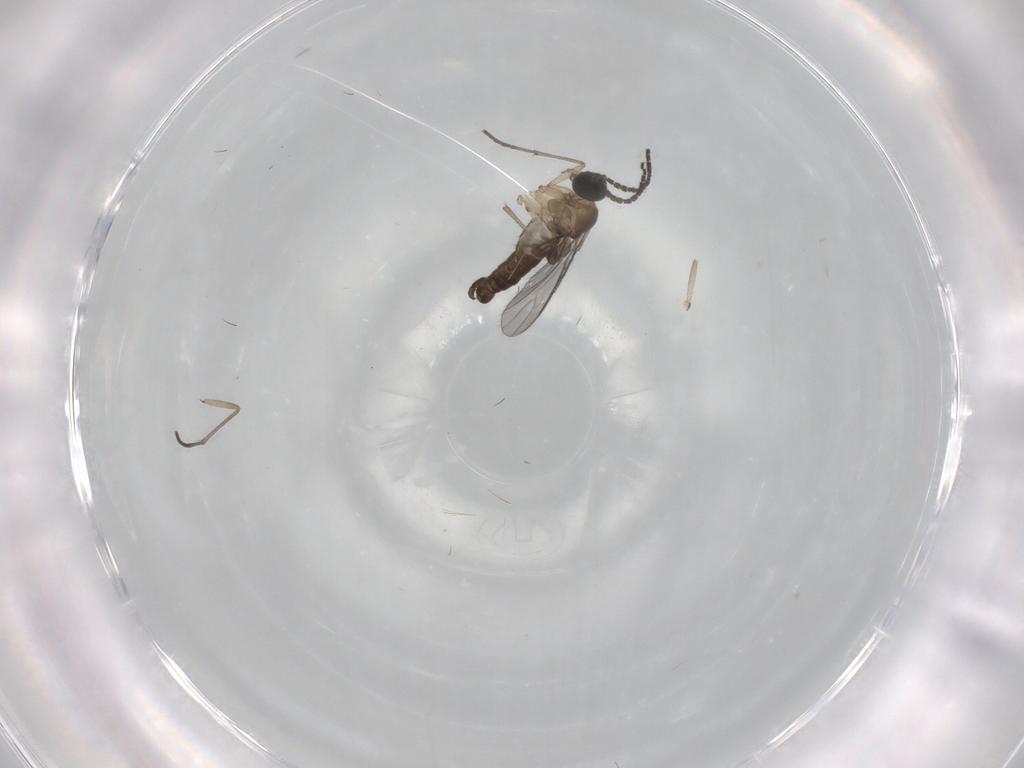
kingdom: Animalia
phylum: Arthropoda
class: Insecta
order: Diptera
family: Sciaridae
